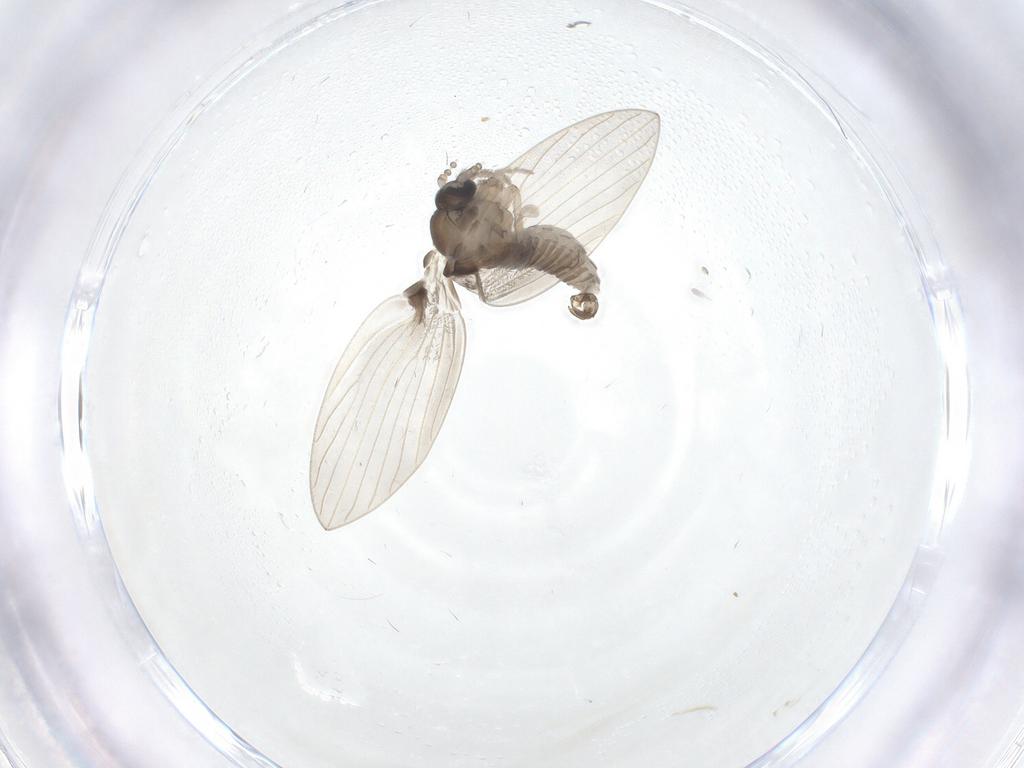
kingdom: Animalia
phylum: Arthropoda
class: Insecta
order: Diptera
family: Psychodidae
